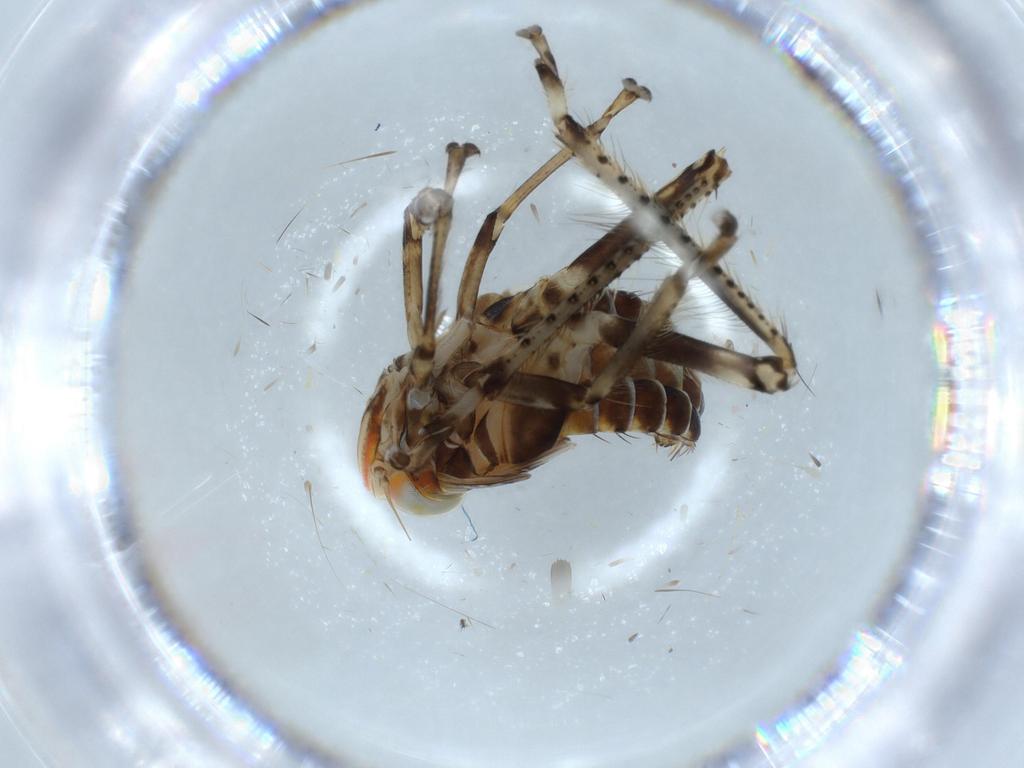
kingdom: Animalia
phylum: Arthropoda
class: Insecta
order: Hemiptera
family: Cicadellidae
